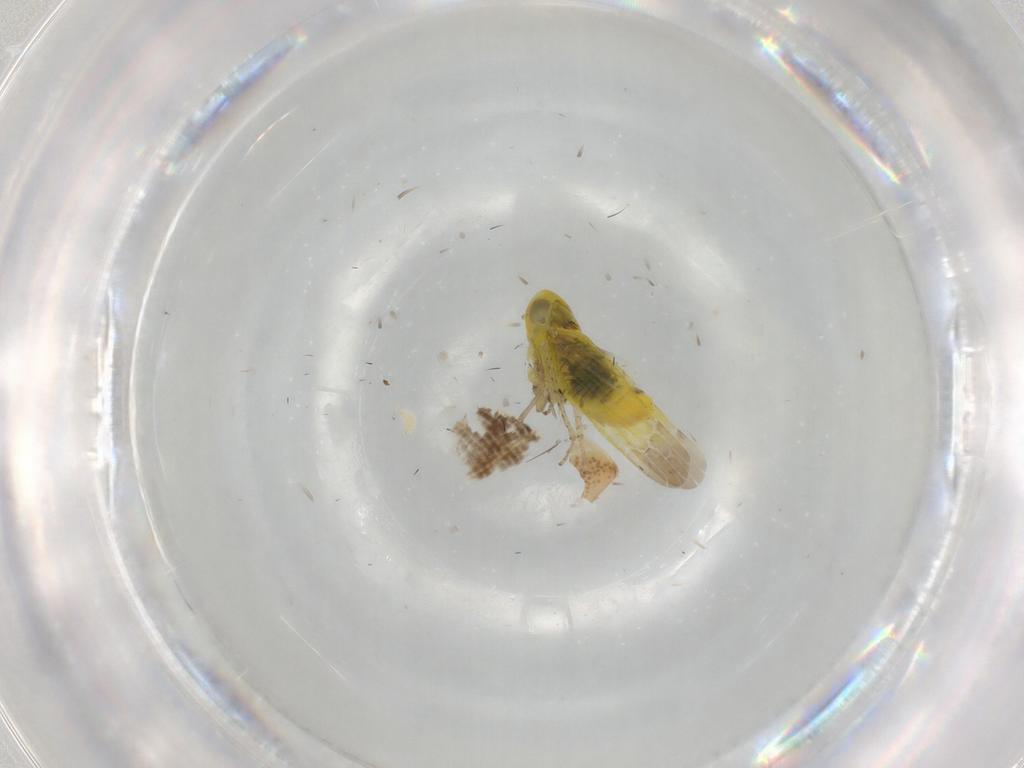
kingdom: Animalia
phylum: Arthropoda
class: Insecta
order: Hemiptera
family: Cicadellidae
